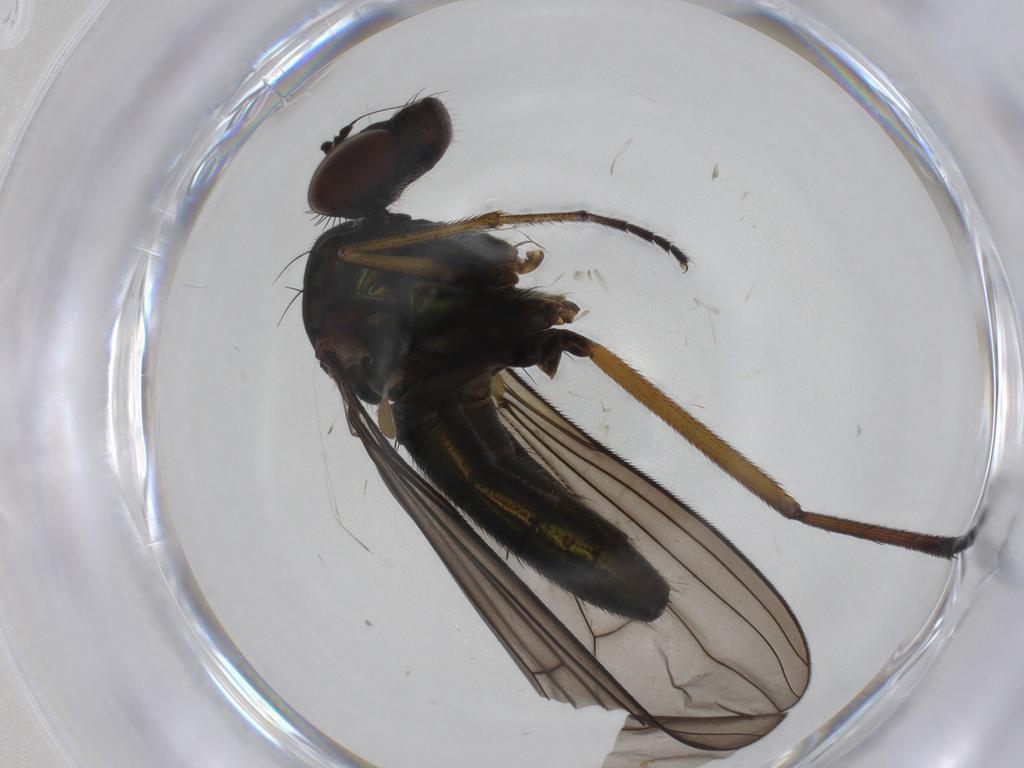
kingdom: Animalia
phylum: Arthropoda
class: Insecta
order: Diptera
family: Dolichopodidae
